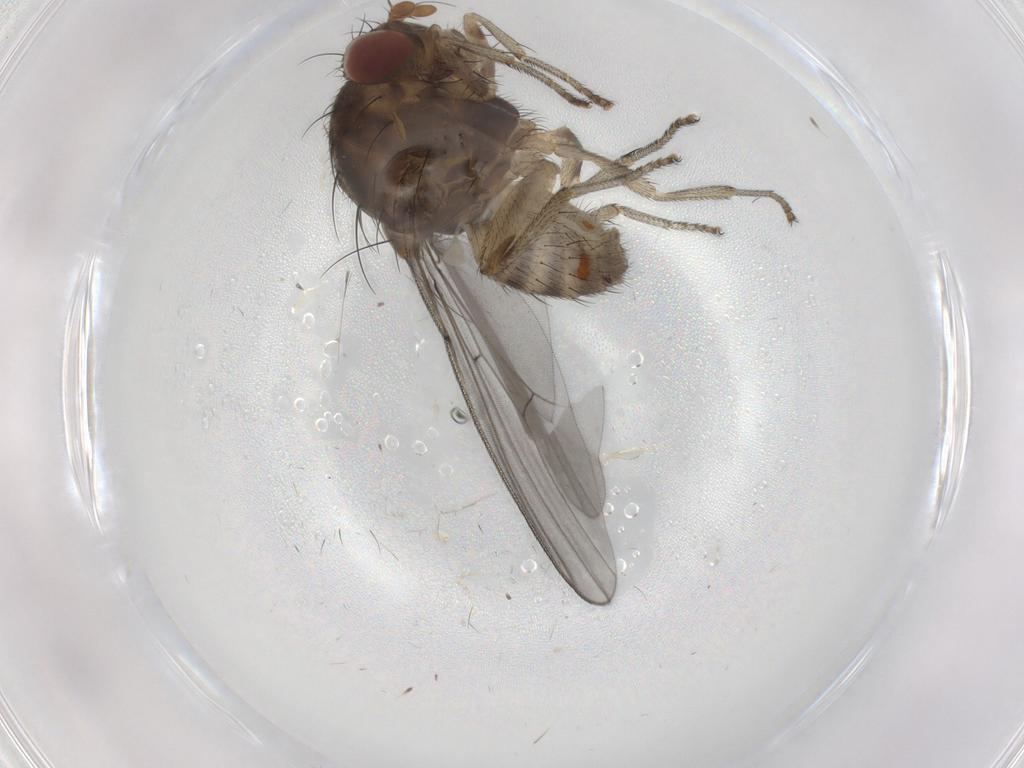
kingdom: Animalia
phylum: Arthropoda
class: Insecta
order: Diptera
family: Lauxaniidae
